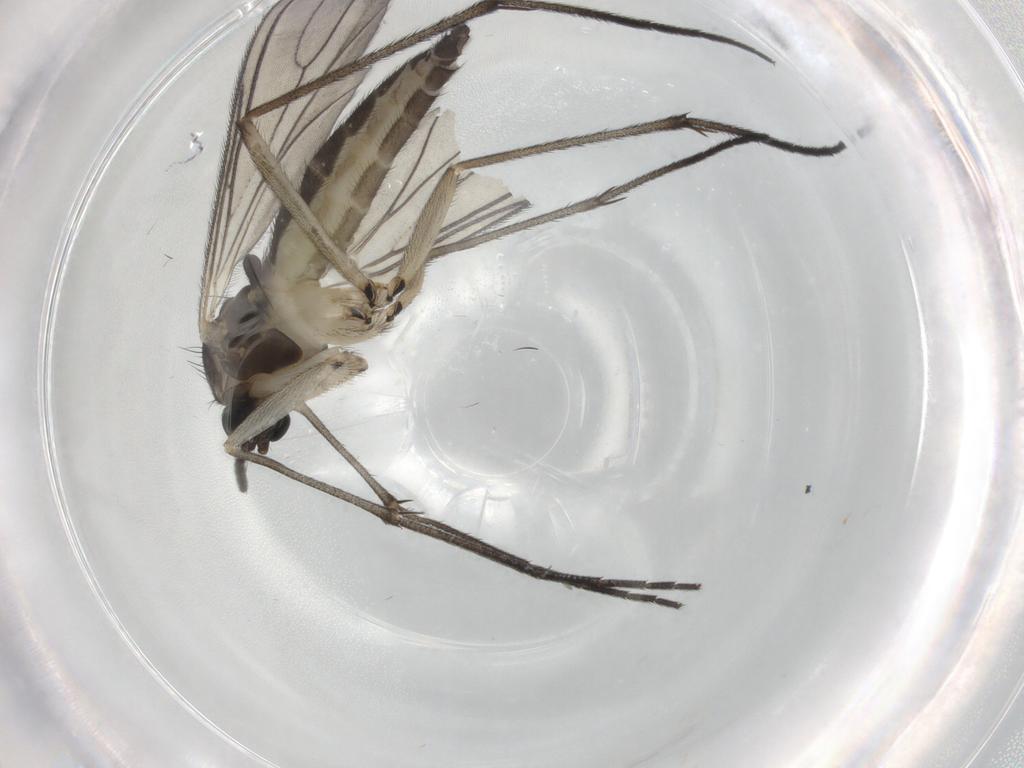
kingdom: Animalia
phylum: Arthropoda
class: Insecta
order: Diptera
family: Sciaridae
